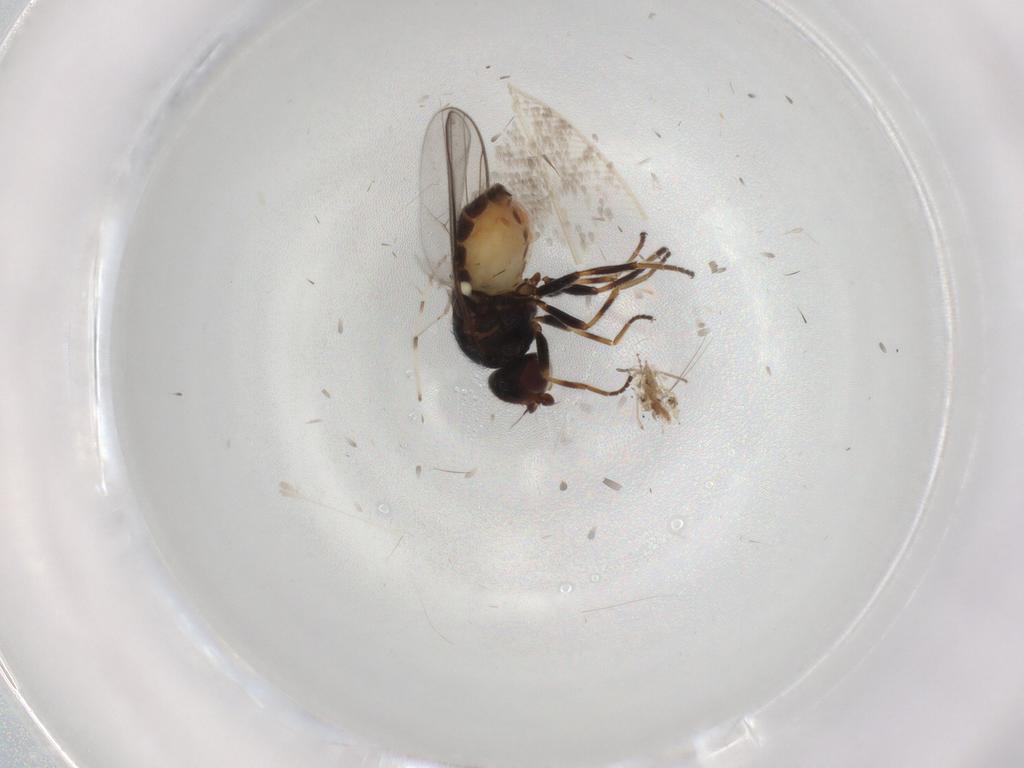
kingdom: Animalia
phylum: Arthropoda
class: Insecta
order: Diptera
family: Chloropidae
